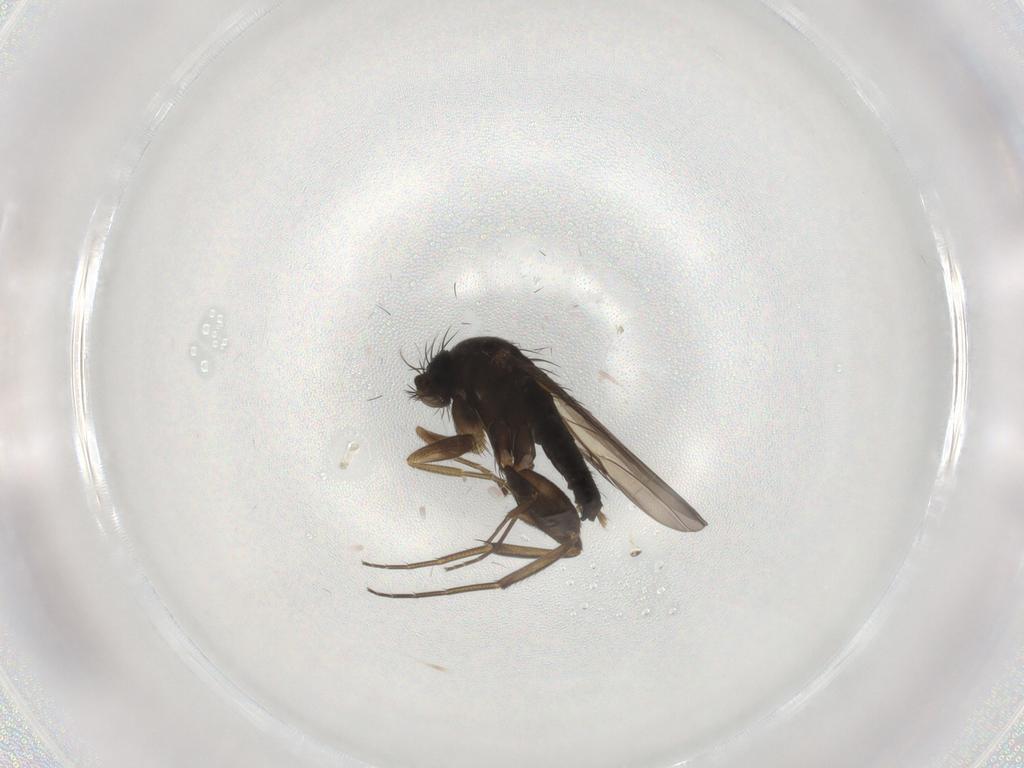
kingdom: Animalia
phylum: Arthropoda
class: Insecta
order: Diptera
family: Phoridae
